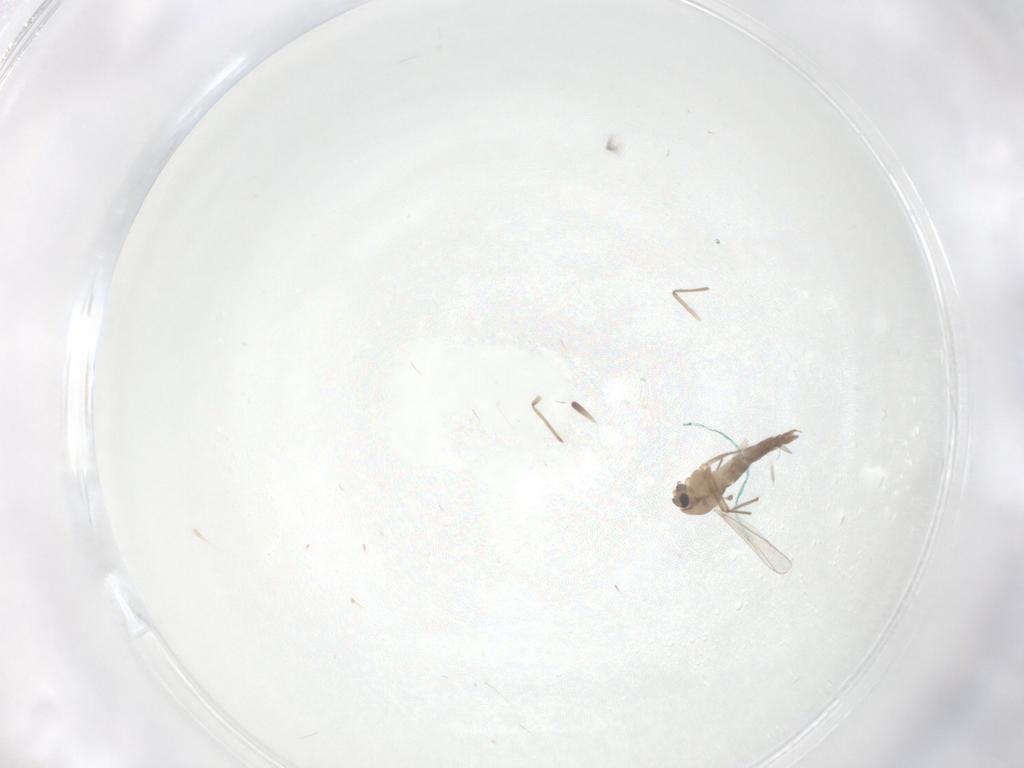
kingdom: Animalia
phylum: Arthropoda
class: Insecta
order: Diptera
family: Chironomidae
